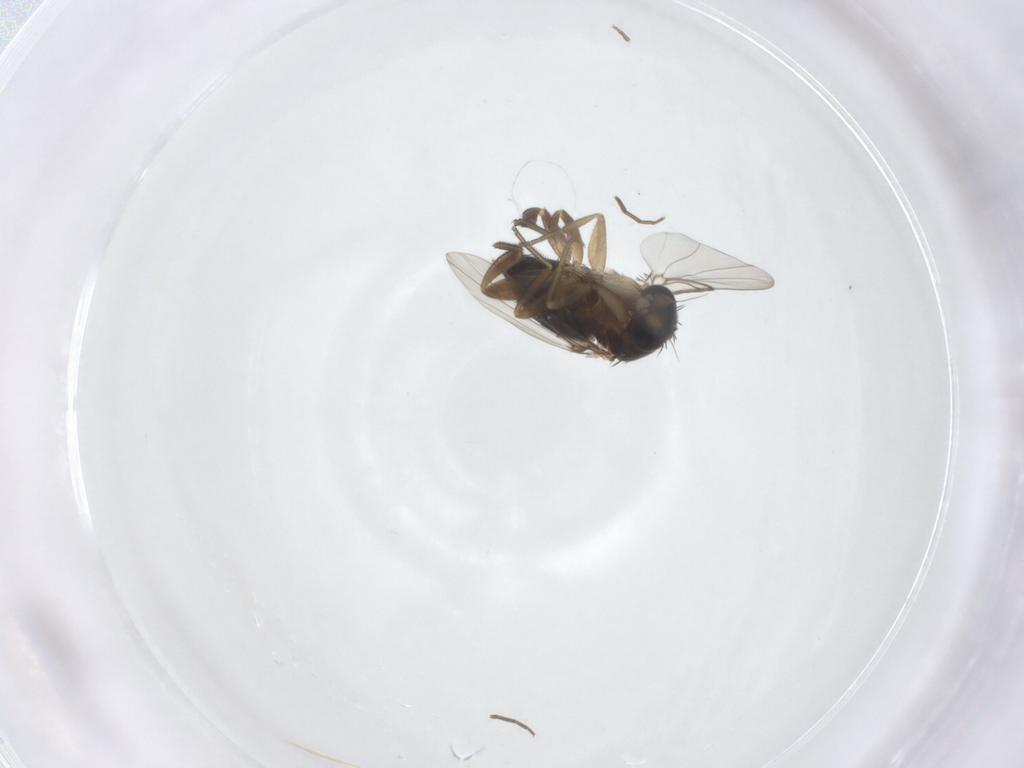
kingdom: Animalia
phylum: Arthropoda
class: Insecta
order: Diptera
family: Phoridae
